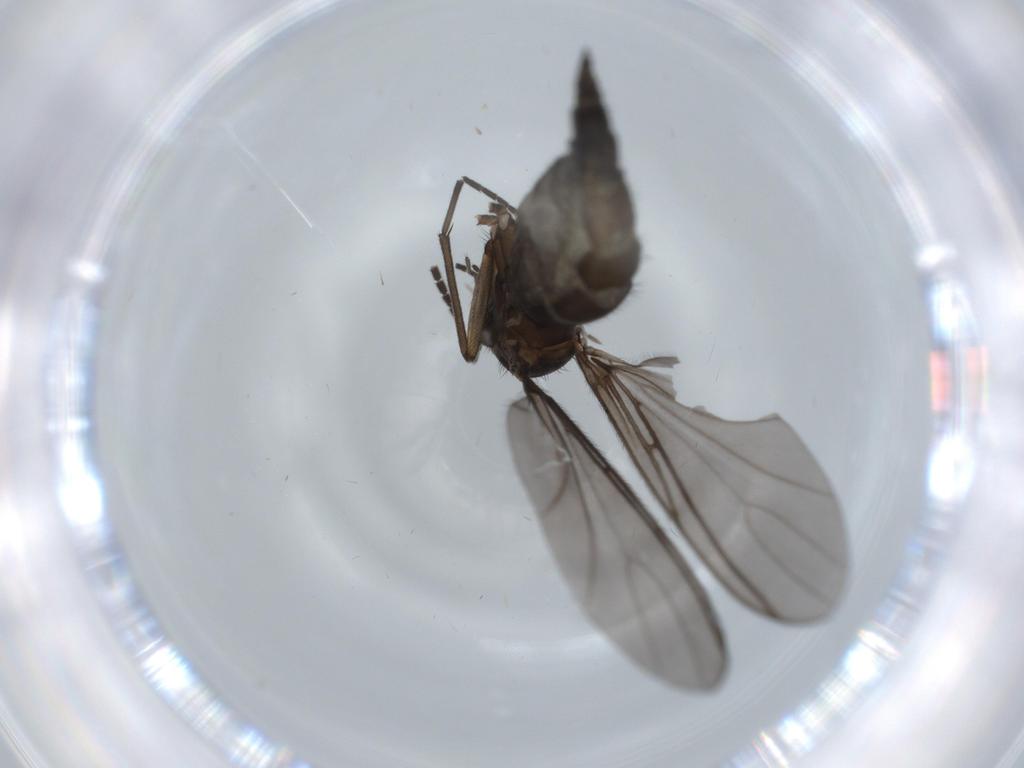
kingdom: Animalia
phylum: Arthropoda
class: Insecta
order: Diptera
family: Sciaridae
